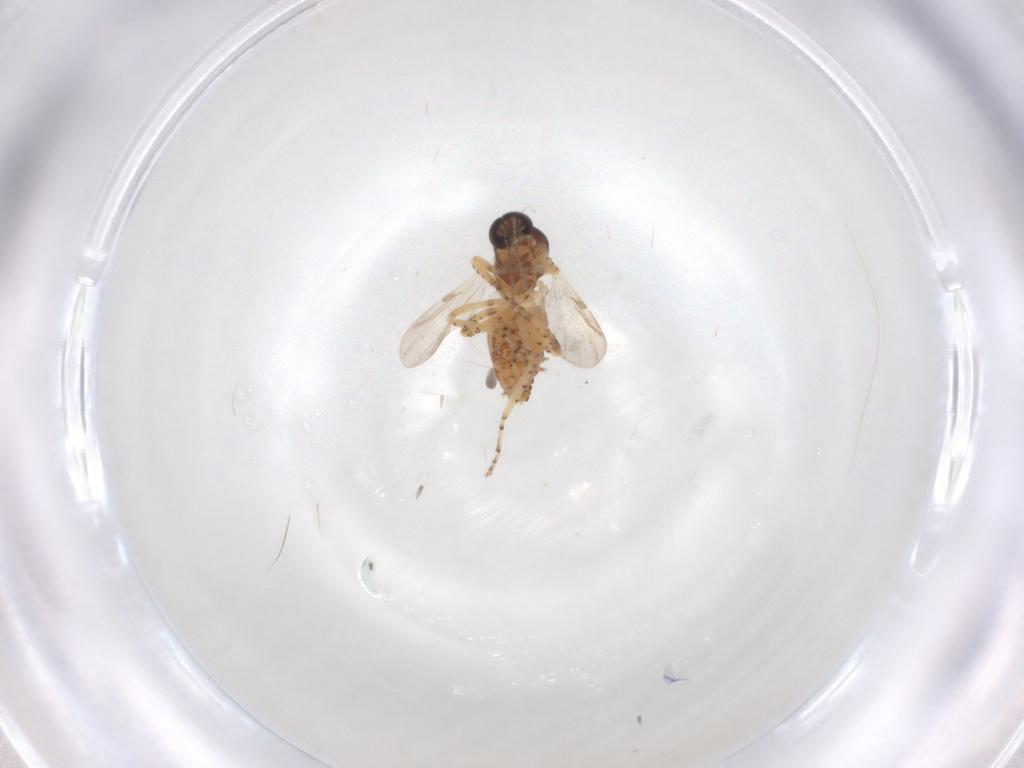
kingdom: Animalia
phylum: Arthropoda
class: Insecta
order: Diptera
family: Ceratopogonidae
